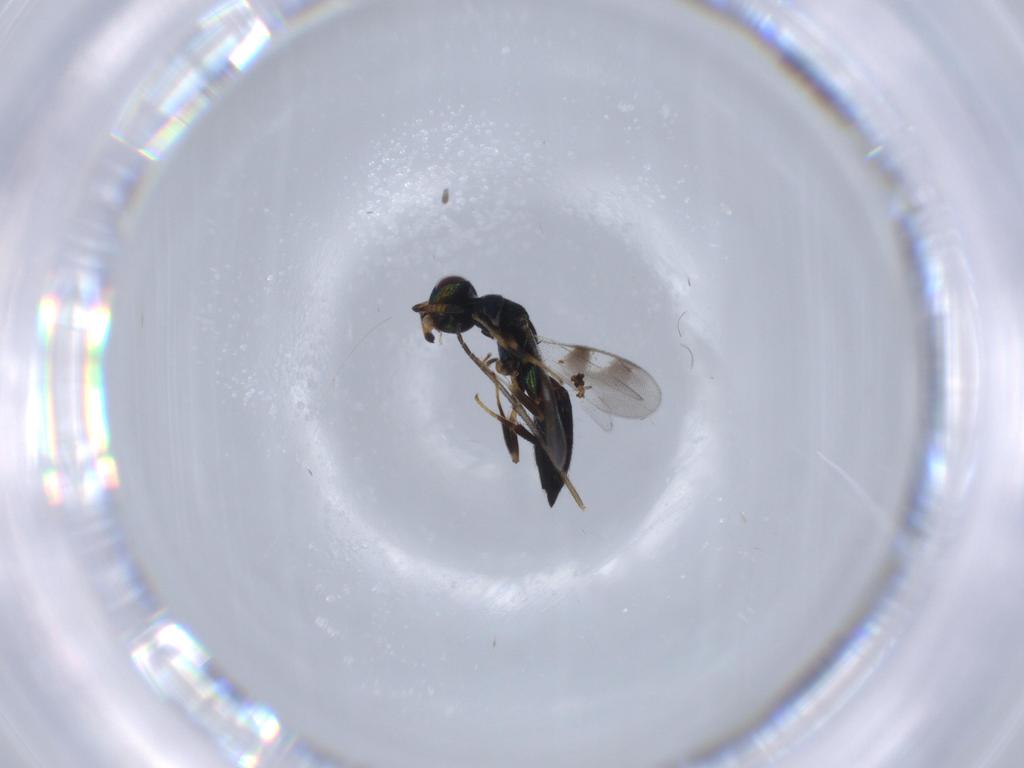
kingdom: Animalia
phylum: Arthropoda
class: Insecta
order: Hymenoptera
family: Cleonyminae
